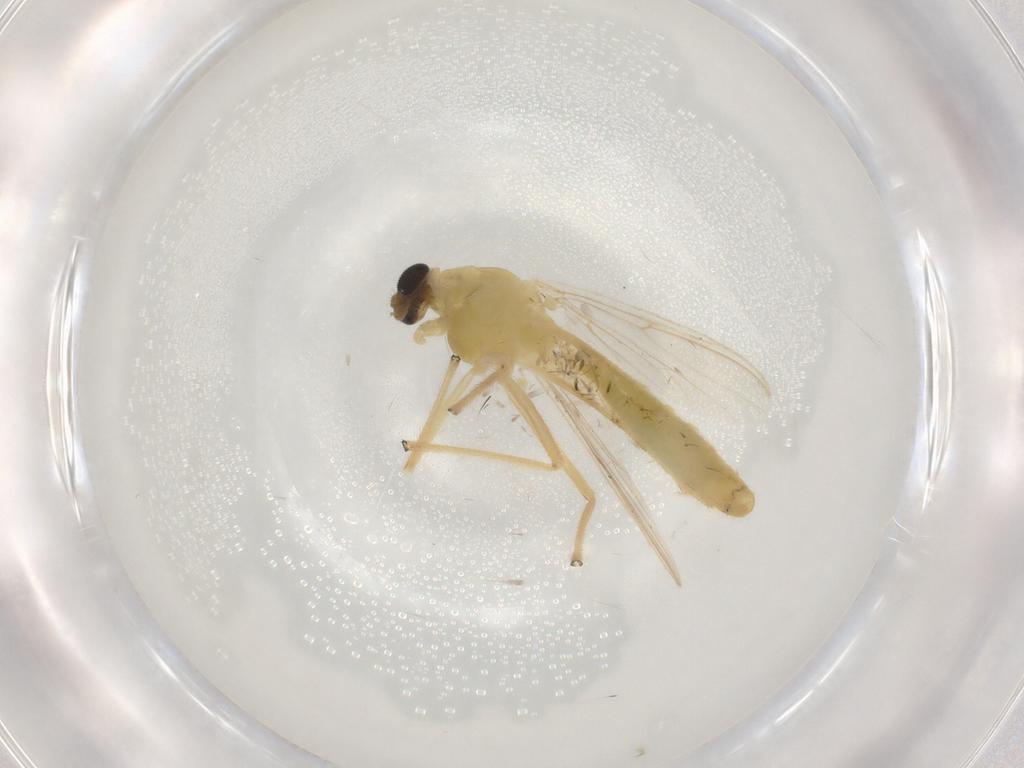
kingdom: Animalia
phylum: Arthropoda
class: Insecta
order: Diptera
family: Chironomidae
